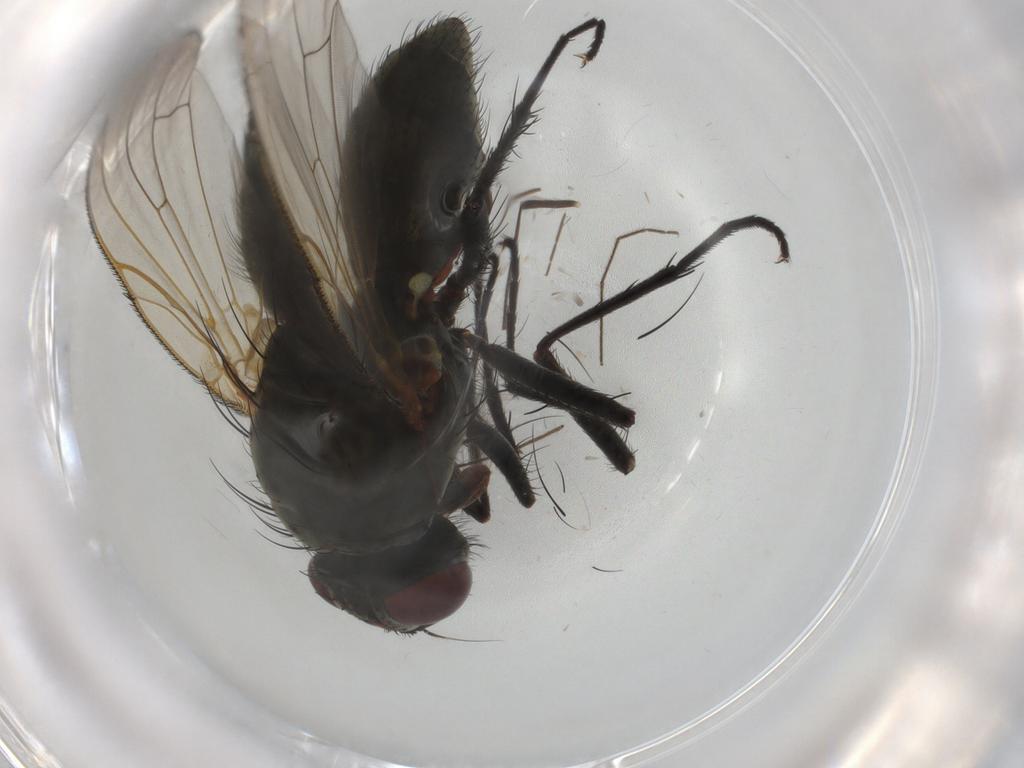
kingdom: Animalia
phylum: Arthropoda
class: Insecta
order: Diptera
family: Anthomyiidae
